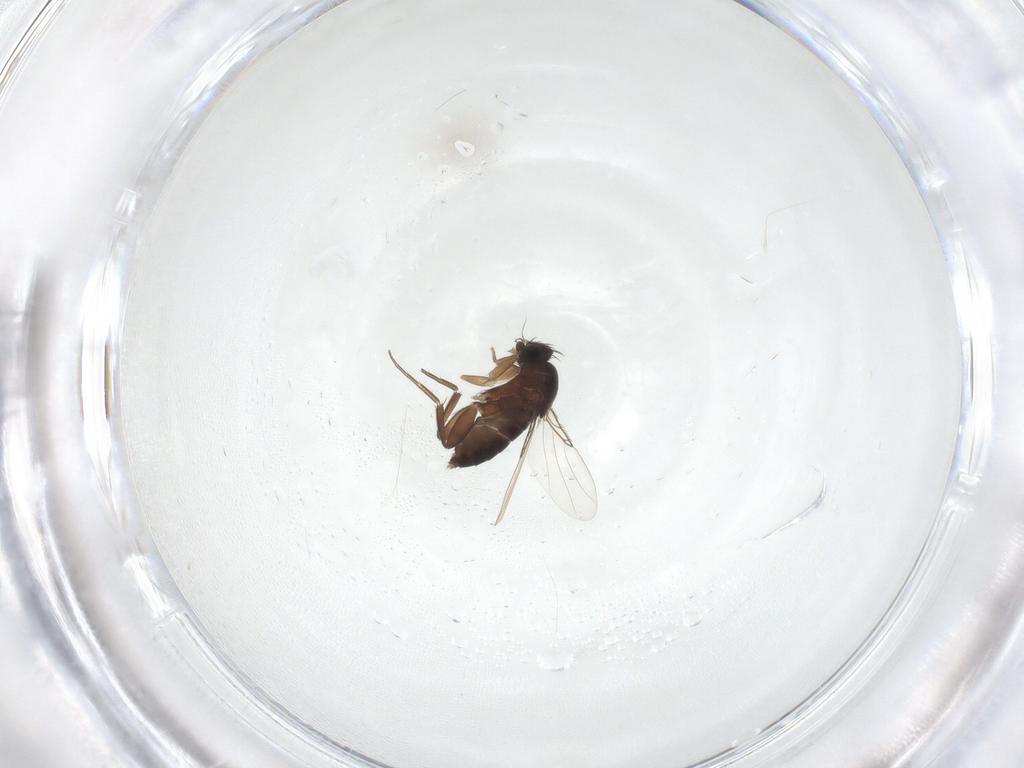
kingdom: Animalia
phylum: Arthropoda
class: Insecta
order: Diptera
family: Phoridae
